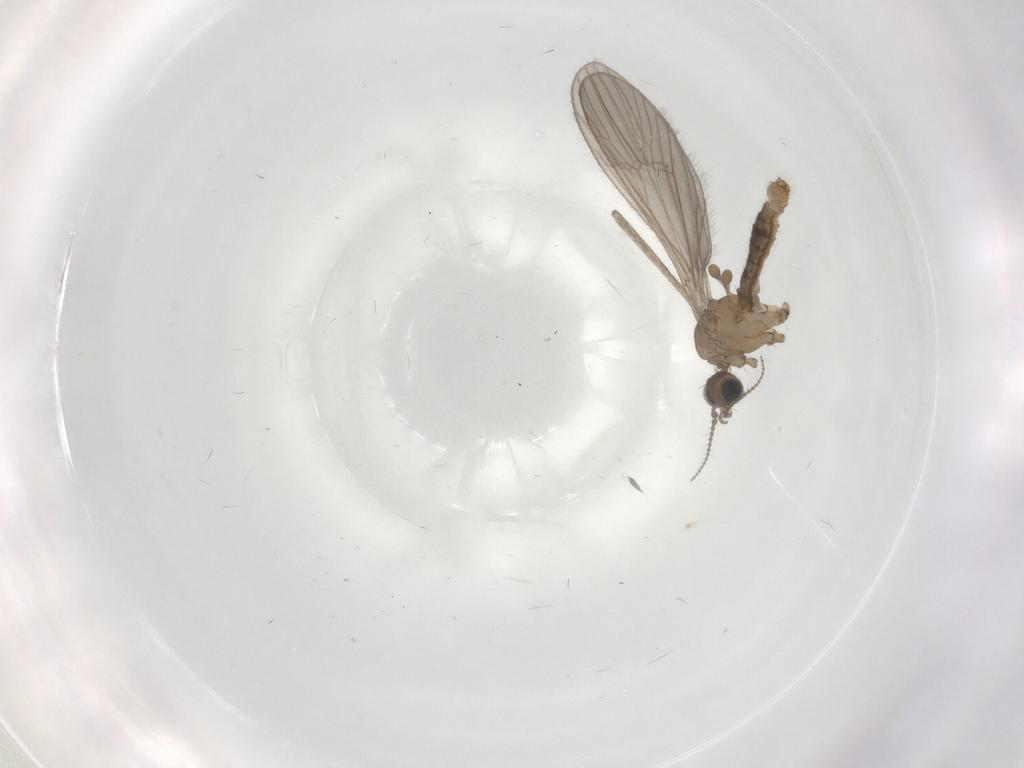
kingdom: Animalia
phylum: Arthropoda
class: Insecta
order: Diptera
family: Limoniidae
